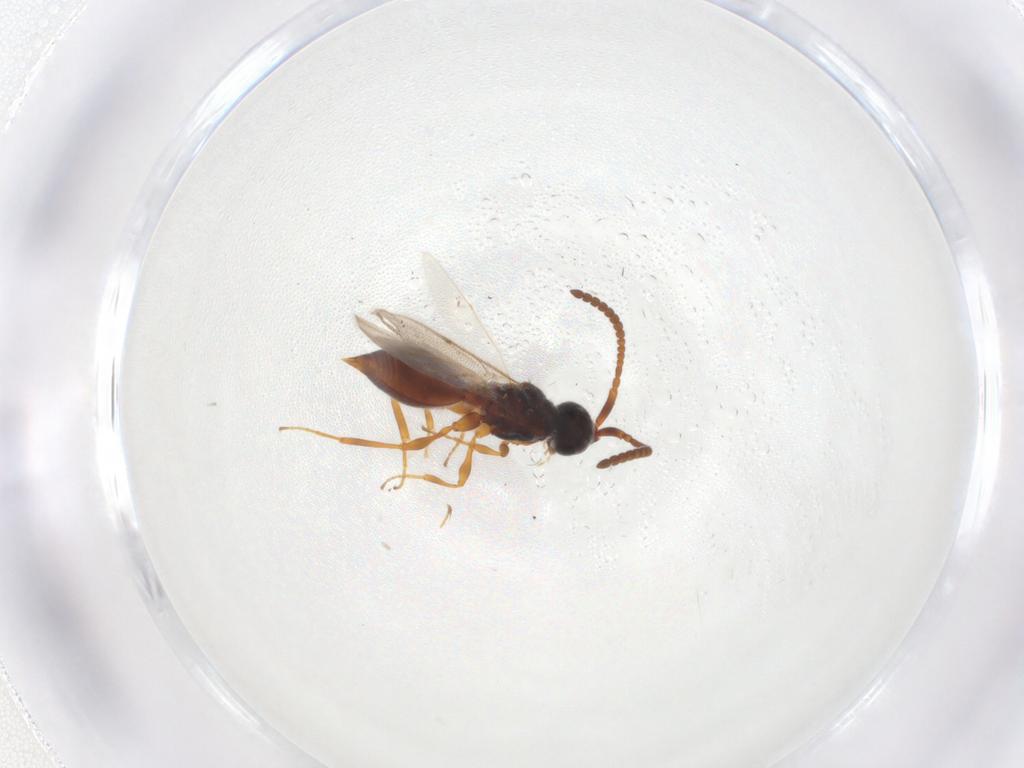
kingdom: Animalia
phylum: Arthropoda
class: Insecta
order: Hymenoptera
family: Diapriidae
